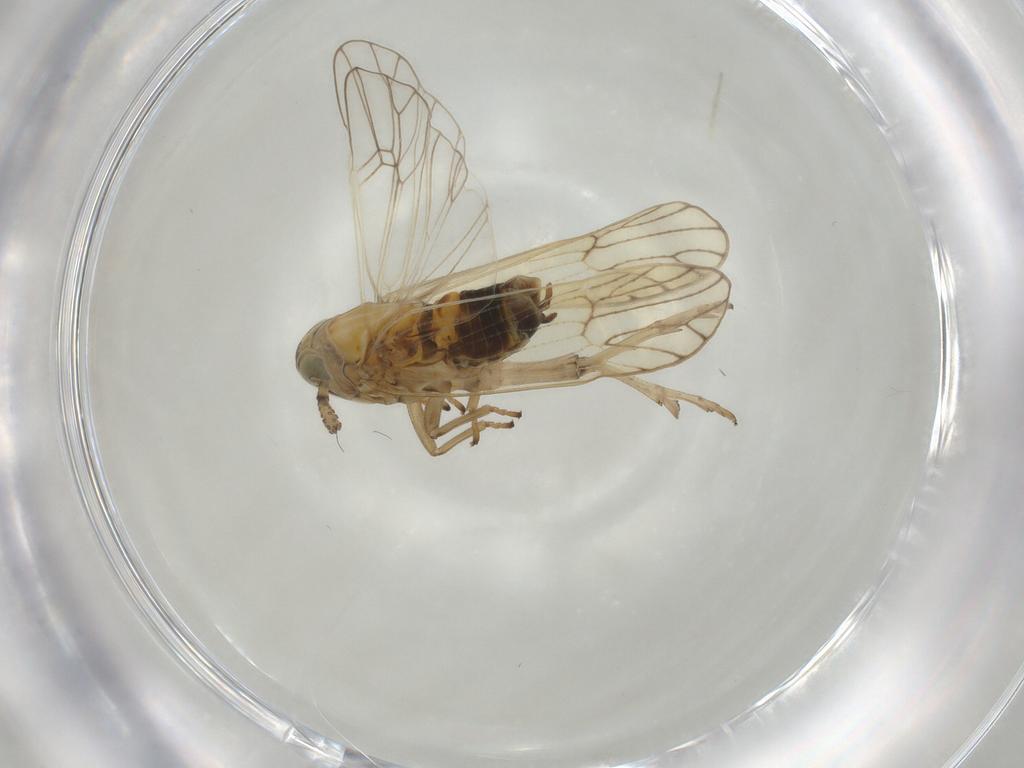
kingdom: Animalia
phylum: Arthropoda
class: Insecta
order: Hemiptera
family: Delphacidae
